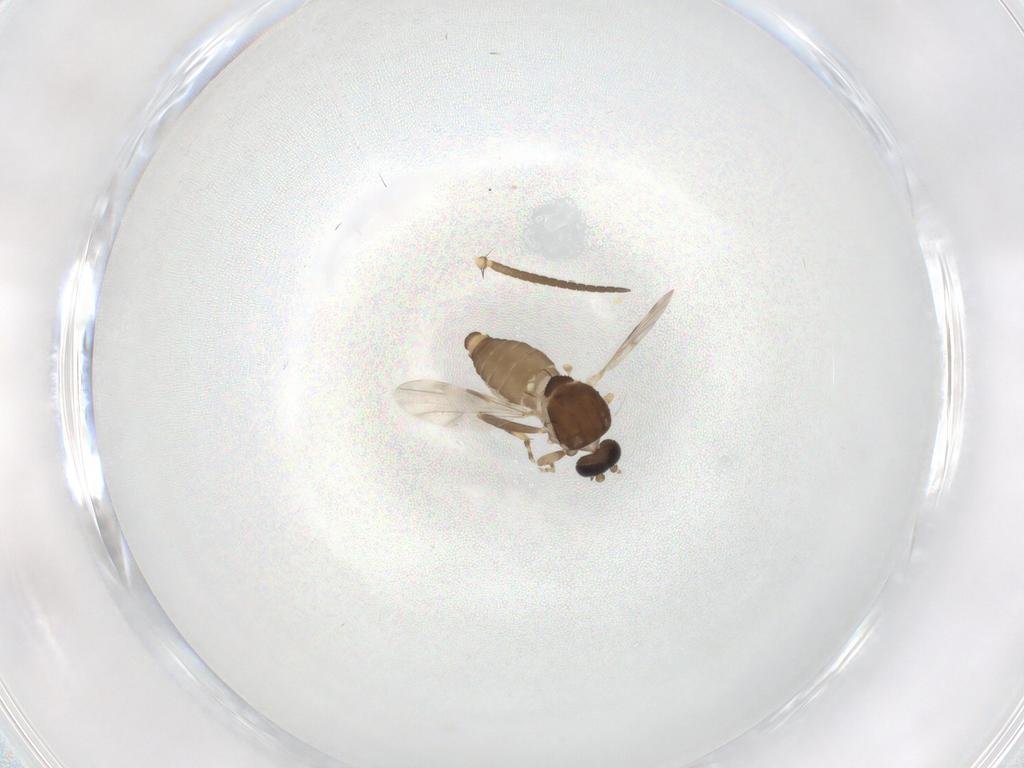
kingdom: Animalia
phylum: Arthropoda
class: Insecta
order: Diptera
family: Ceratopogonidae
